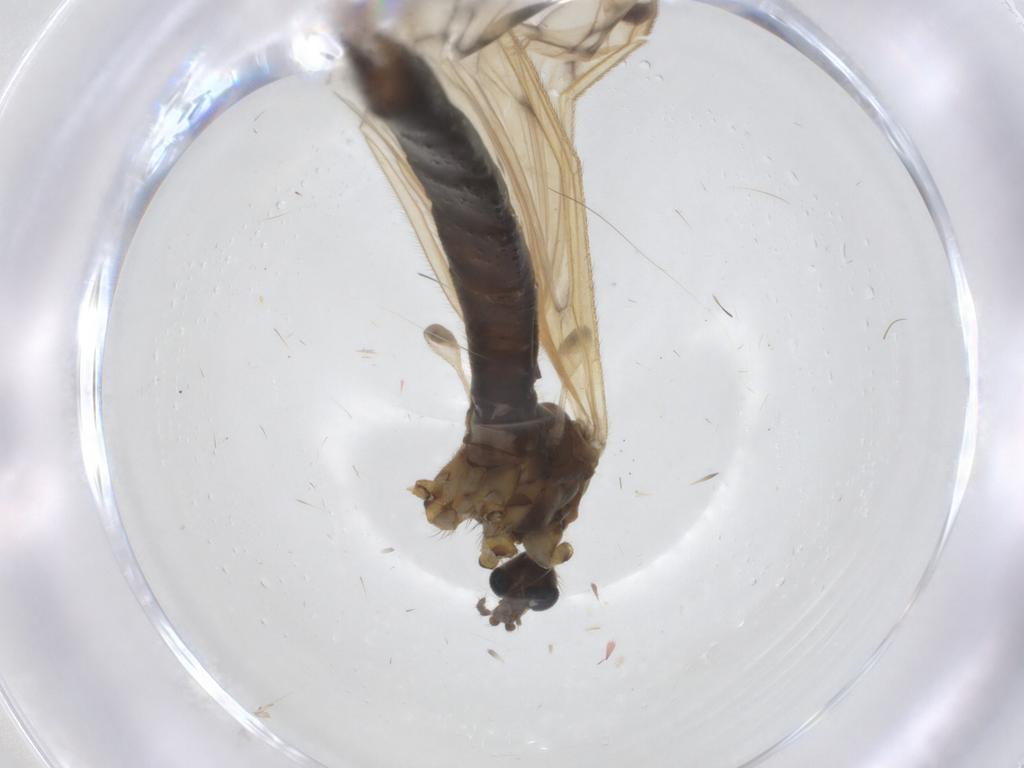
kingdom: Animalia
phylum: Arthropoda
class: Insecta
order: Diptera
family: Limoniidae
